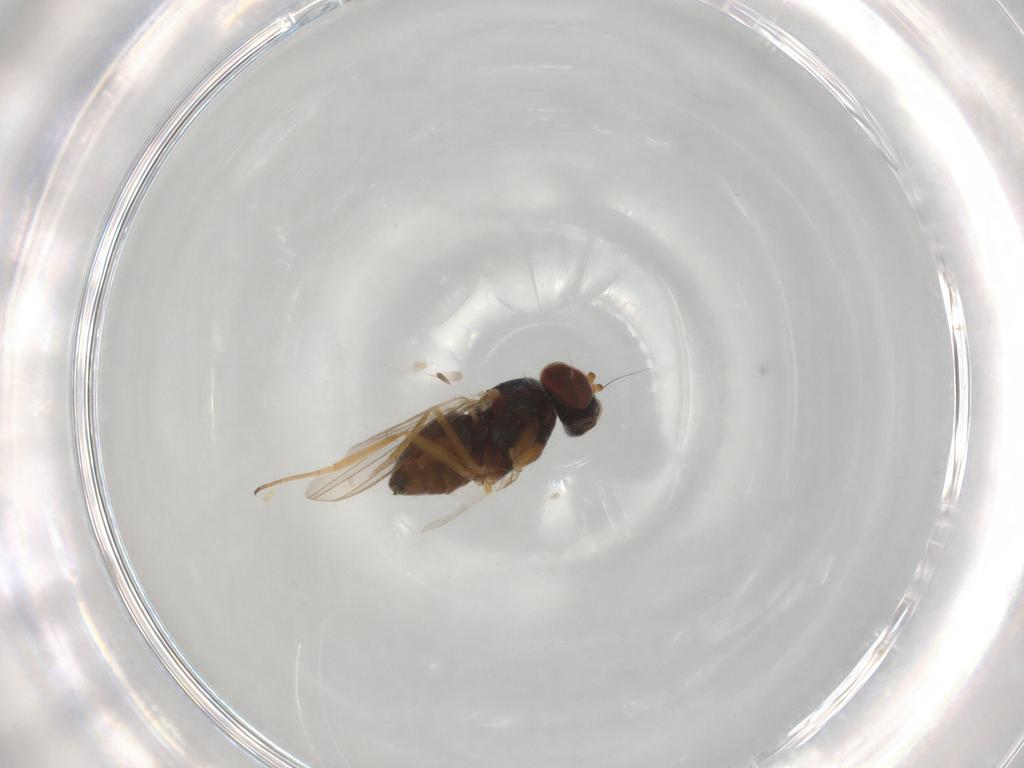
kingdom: Animalia
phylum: Arthropoda
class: Insecta
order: Diptera
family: Dolichopodidae
